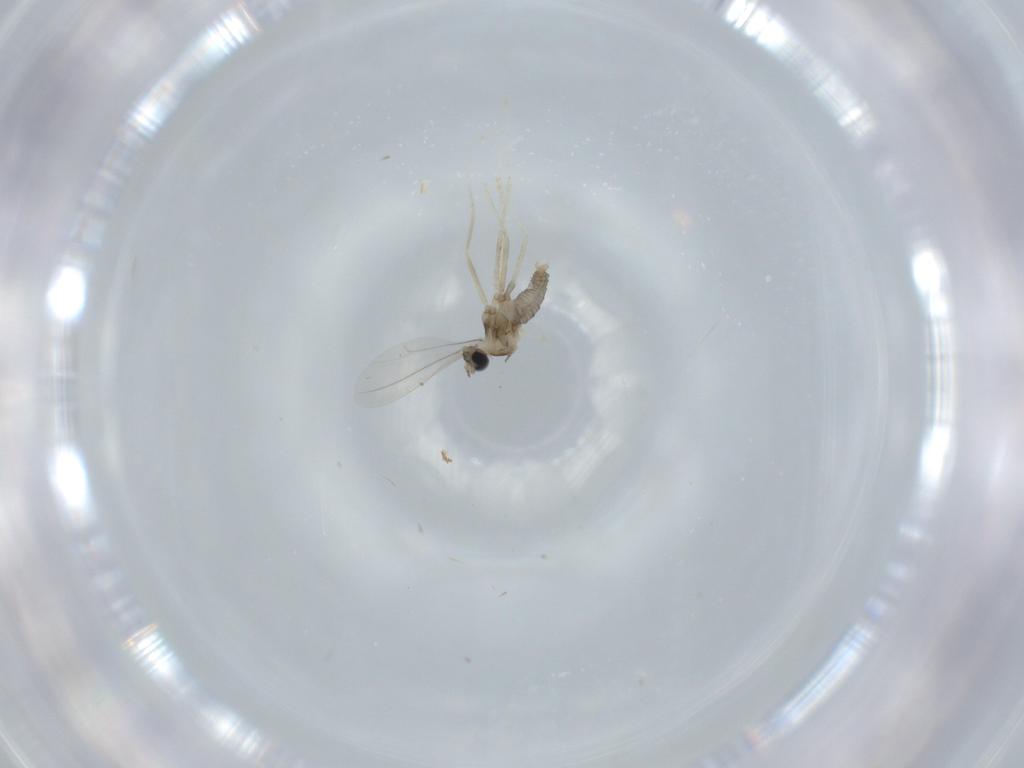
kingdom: Animalia
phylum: Arthropoda
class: Insecta
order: Diptera
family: Cecidomyiidae
